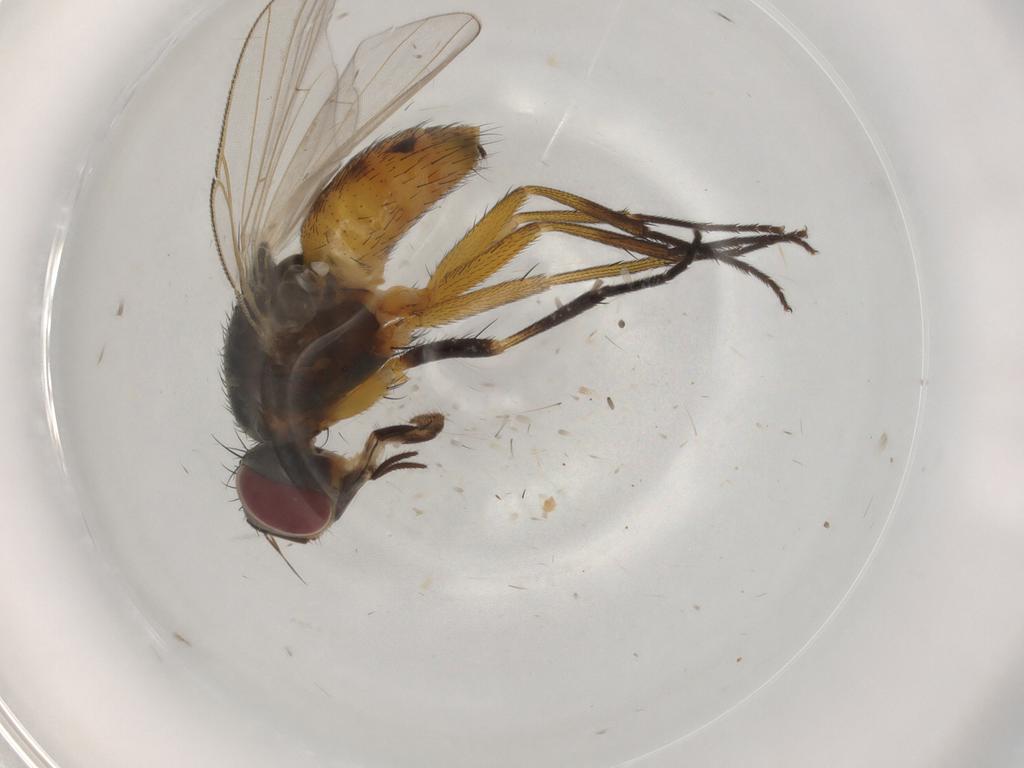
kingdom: Animalia
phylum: Arthropoda
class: Insecta
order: Diptera
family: Muscidae
